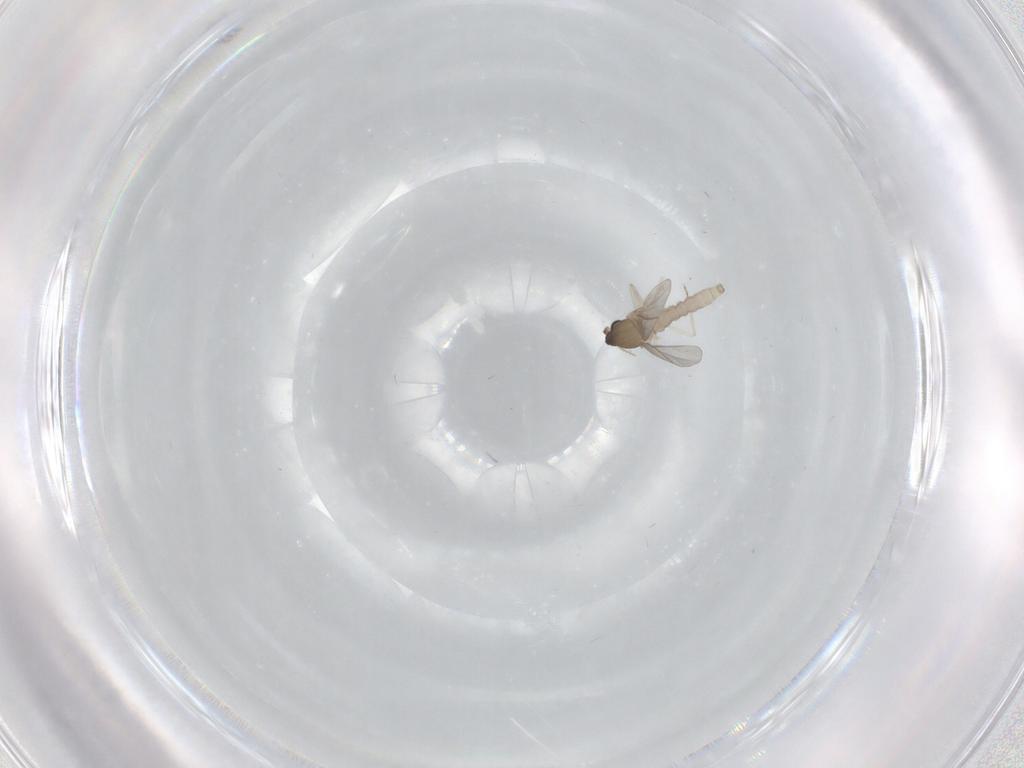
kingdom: Animalia
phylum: Arthropoda
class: Insecta
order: Diptera
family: Cecidomyiidae
